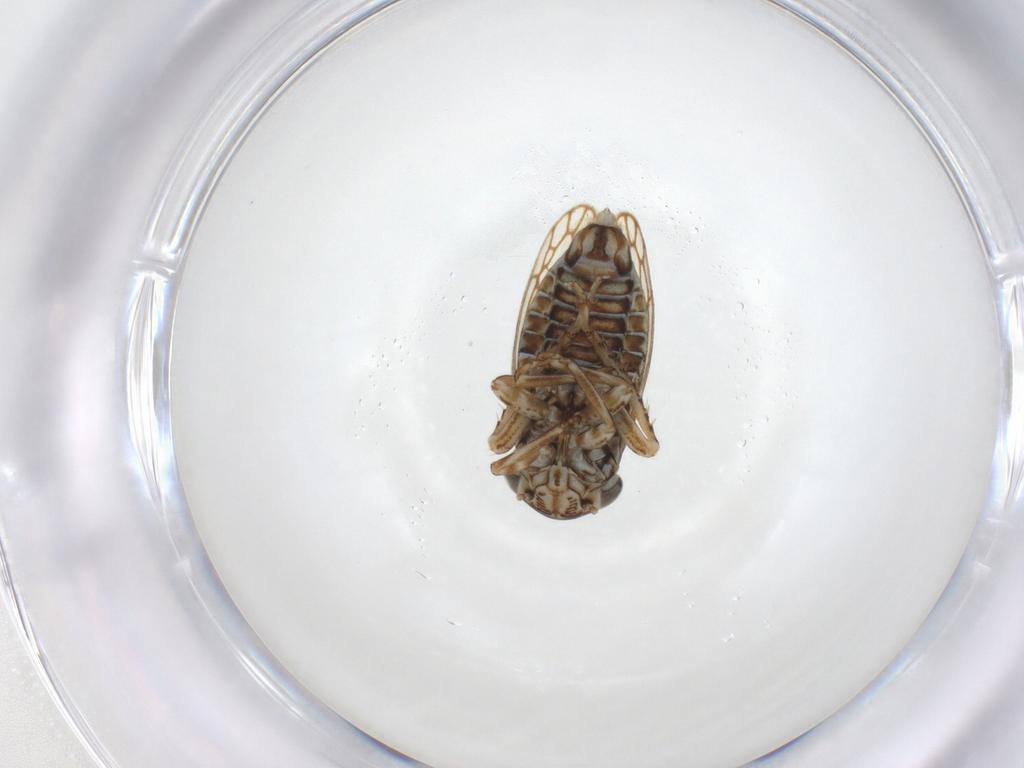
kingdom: Animalia
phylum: Arthropoda
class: Insecta
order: Hemiptera
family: Cicadellidae
